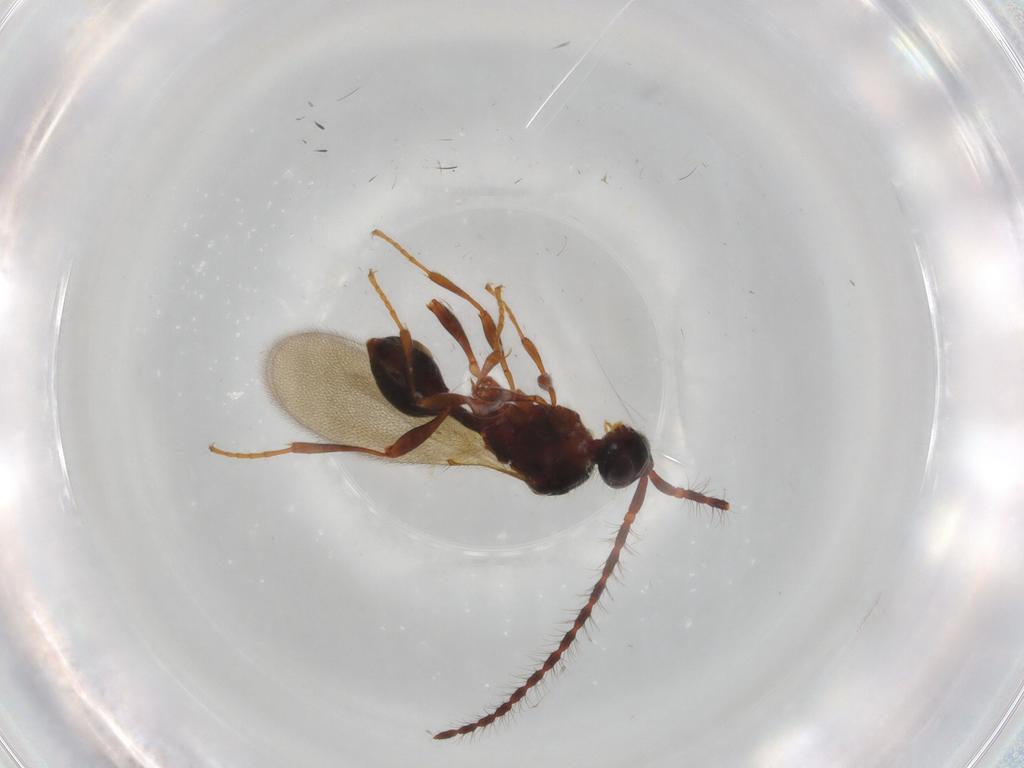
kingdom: Animalia
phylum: Arthropoda
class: Insecta
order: Hymenoptera
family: Diapriidae
